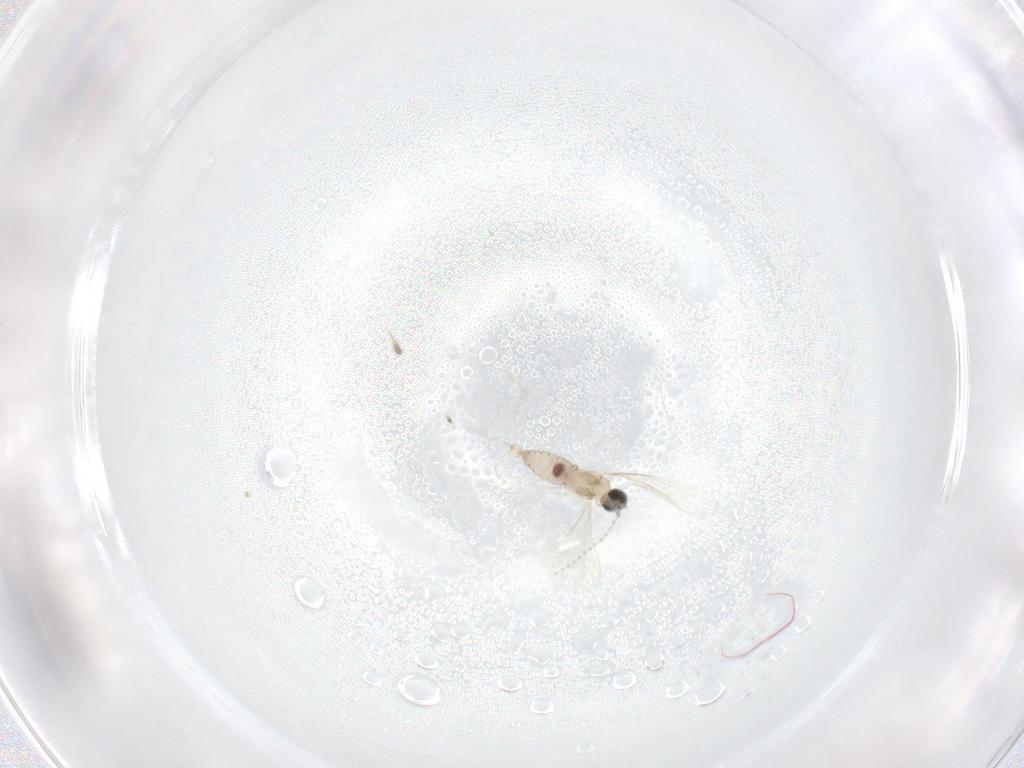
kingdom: Animalia
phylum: Arthropoda
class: Insecta
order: Diptera
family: Cecidomyiidae
